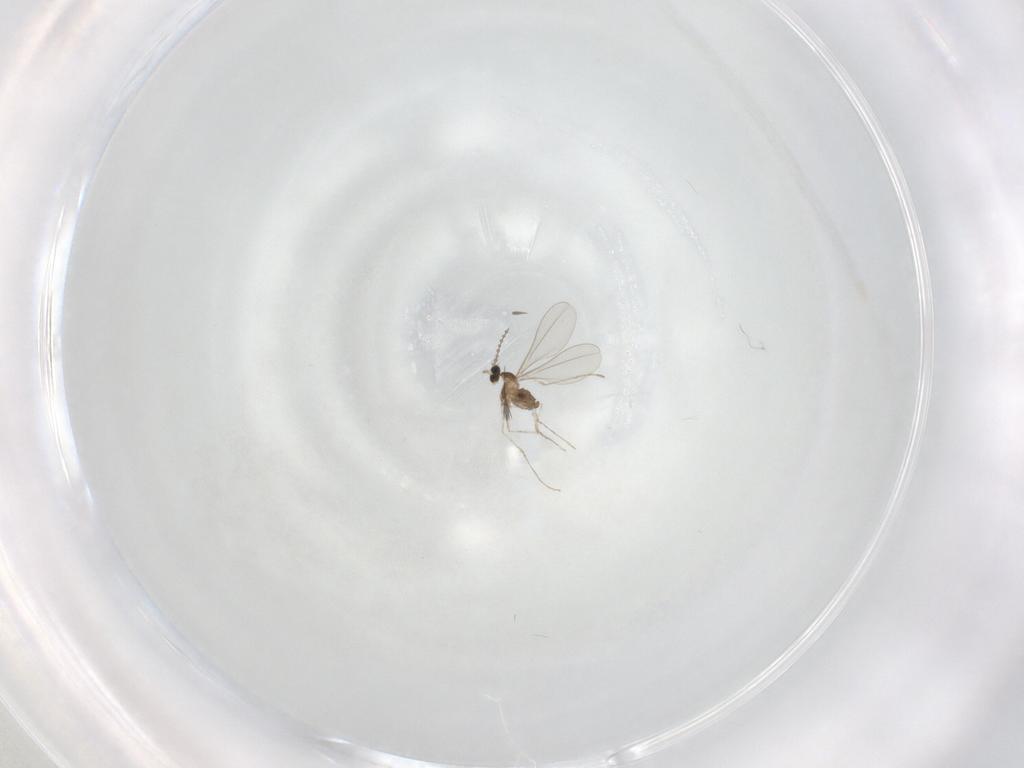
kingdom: Animalia
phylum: Arthropoda
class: Insecta
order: Diptera
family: Cecidomyiidae
